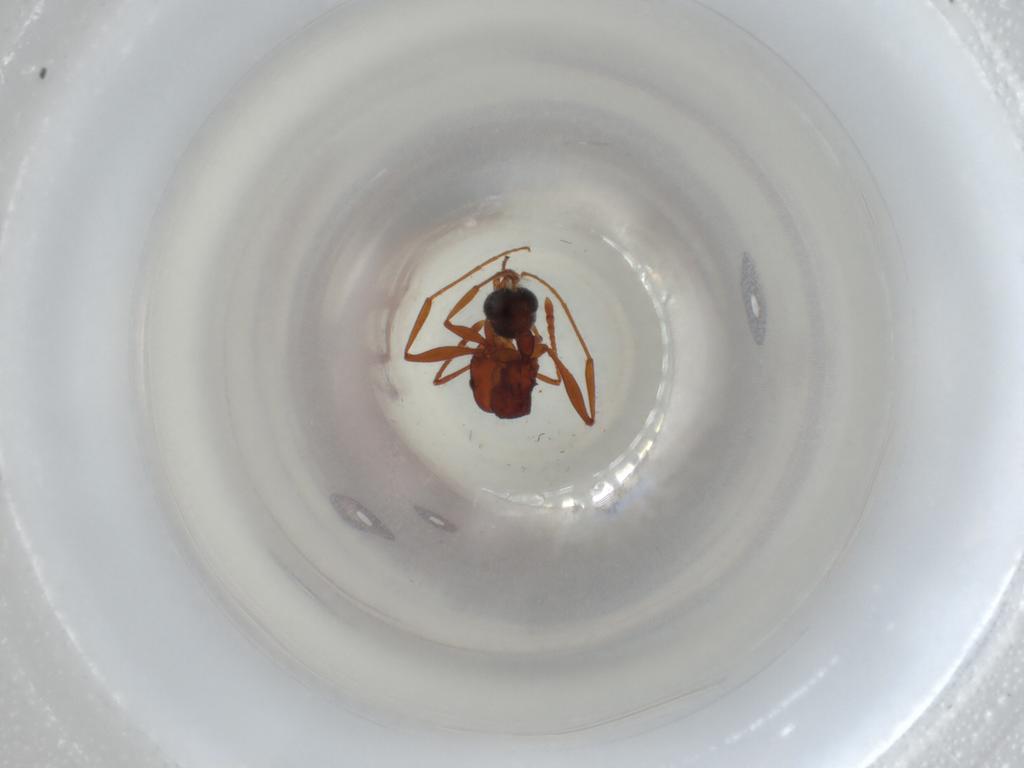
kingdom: Animalia
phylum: Arthropoda
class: Insecta
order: Hymenoptera
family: Formicidae
